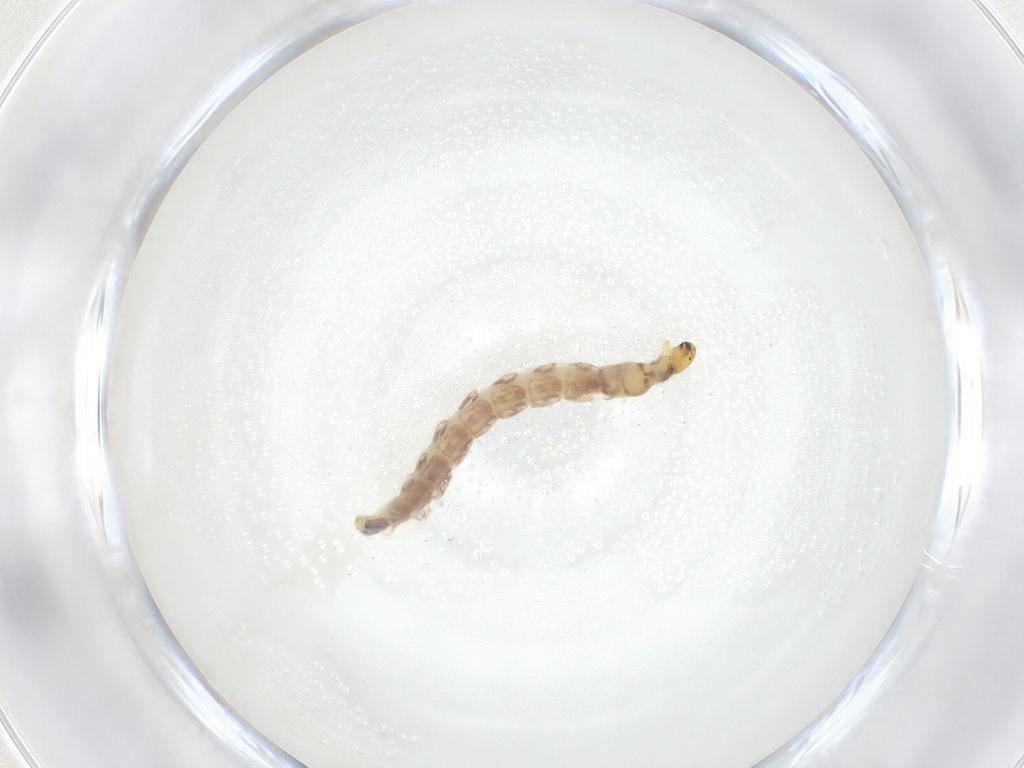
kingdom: Animalia
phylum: Arthropoda
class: Insecta
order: Diptera
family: Chironomidae
